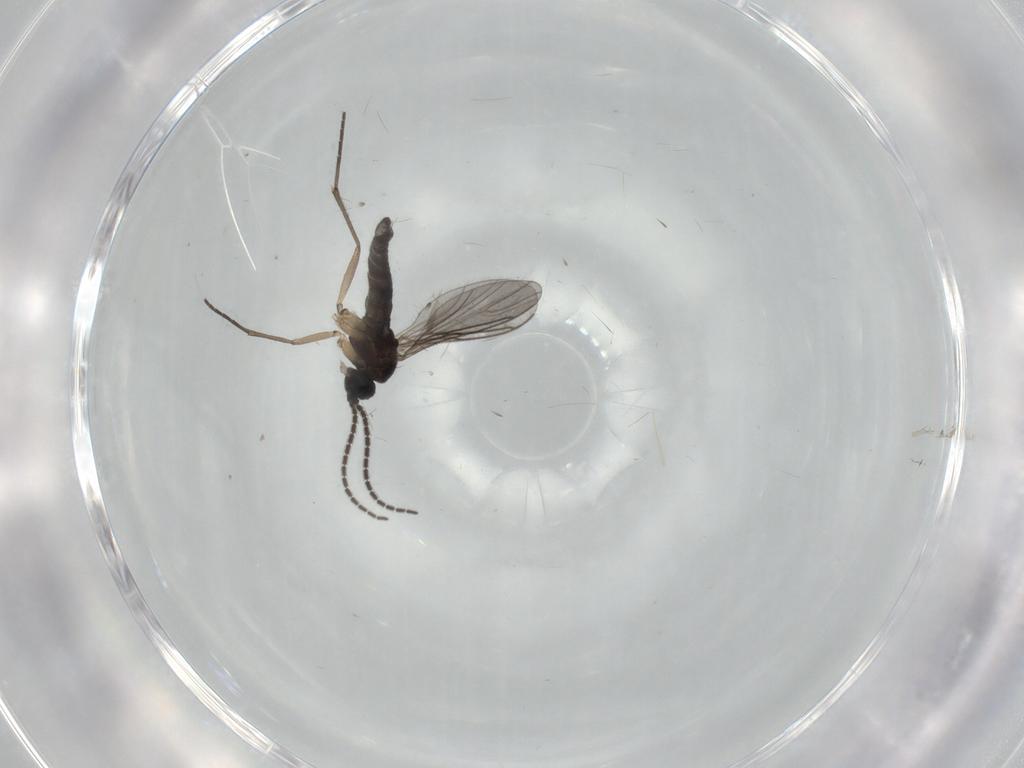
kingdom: Animalia
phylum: Arthropoda
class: Insecta
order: Diptera
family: Sciaridae
